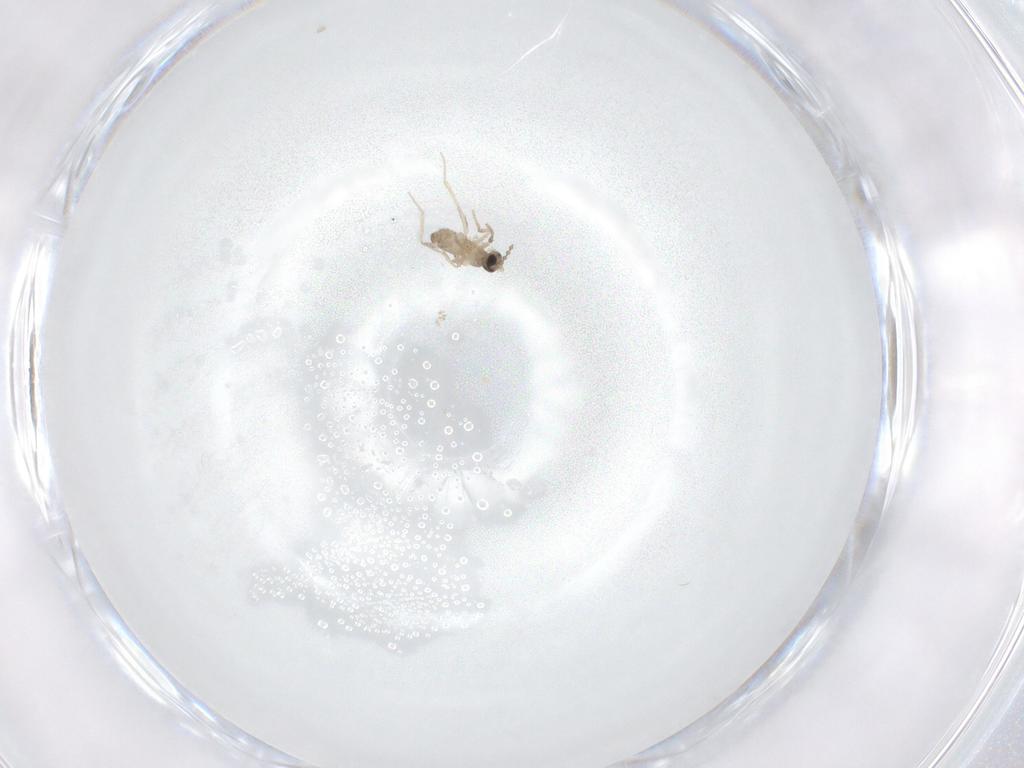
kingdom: Animalia
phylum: Arthropoda
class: Insecta
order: Diptera
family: Cecidomyiidae
